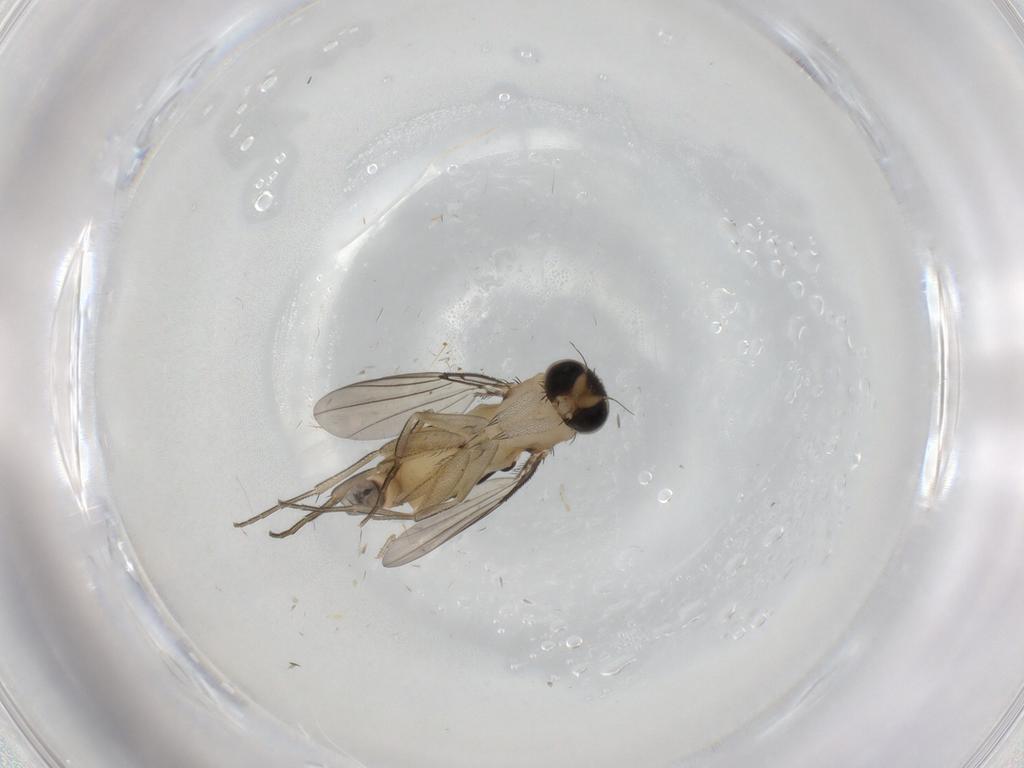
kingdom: Animalia
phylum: Arthropoda
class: Insecta
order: Diptera
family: Phoridae
